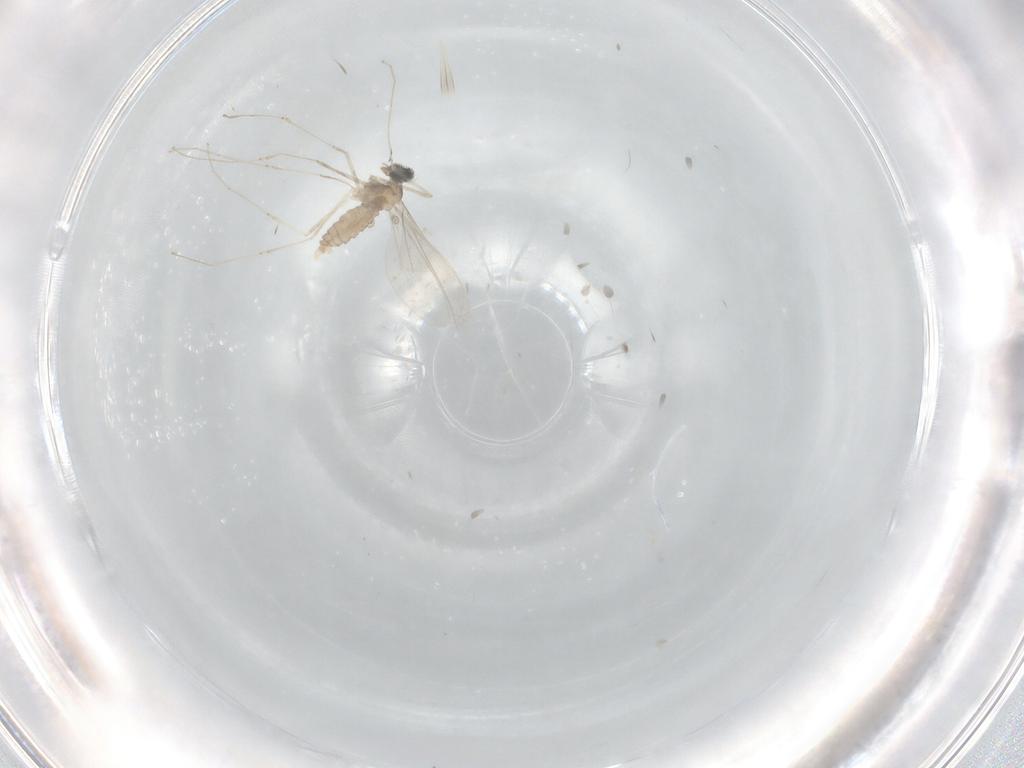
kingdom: Animalia
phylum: Arthropoda
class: Insecta
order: Diptera
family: Cecidomyiidae
